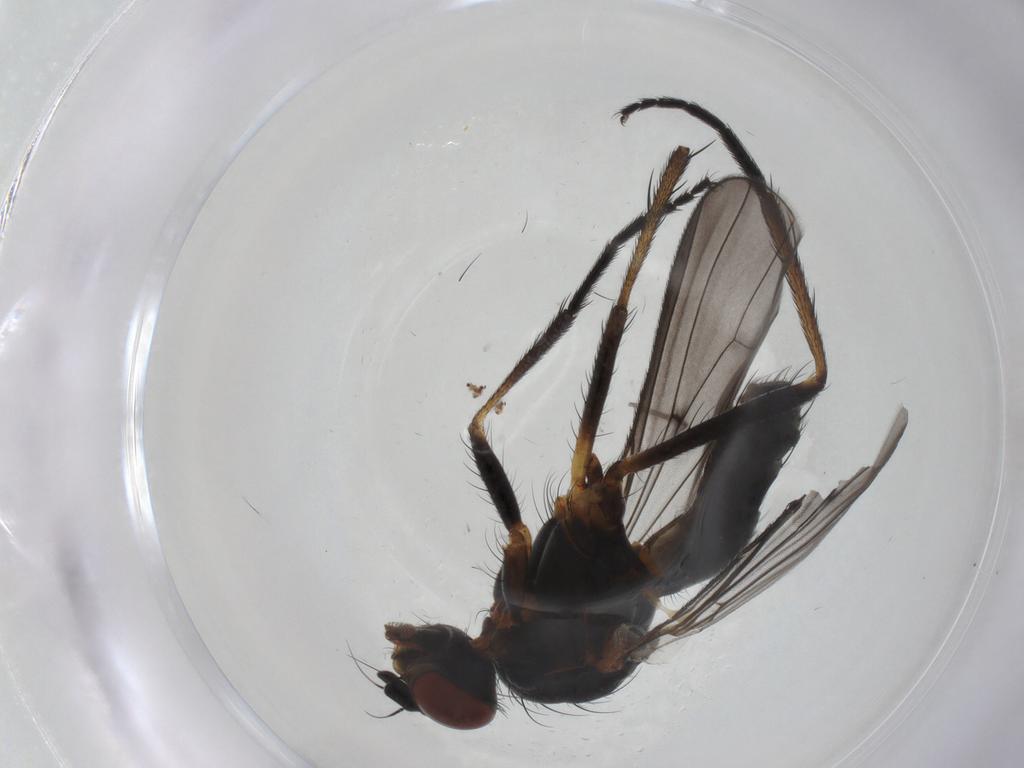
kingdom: Animalia
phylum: Arthropoda
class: Insecta
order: Diptera
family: Anthomyiidae
